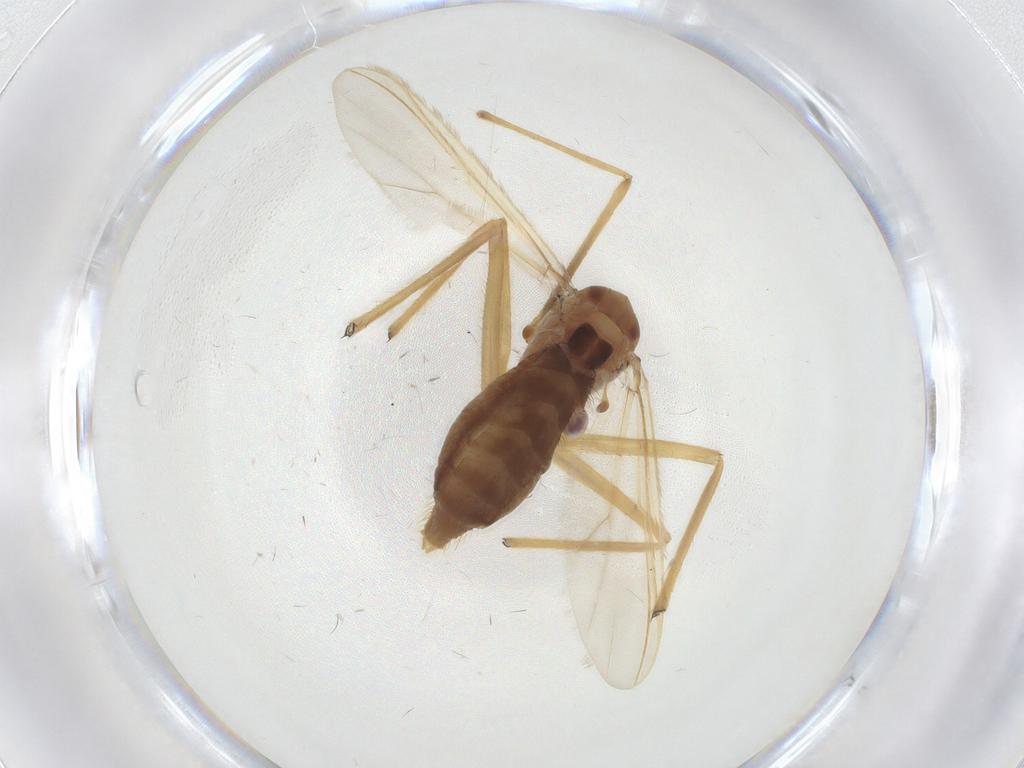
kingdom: Animalia
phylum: Arthropoda
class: Insecta
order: Diptera
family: Chironomidae
